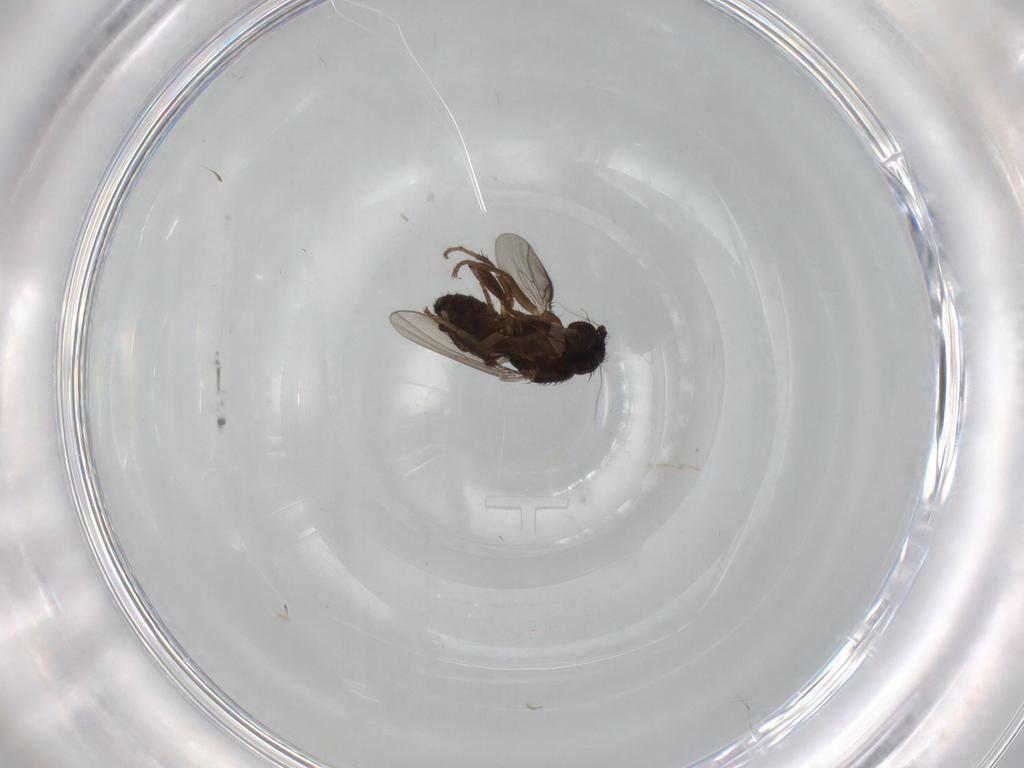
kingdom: Animalia
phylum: Arthropoda
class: Insecta
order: Diptera
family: Sphaeroceridae
